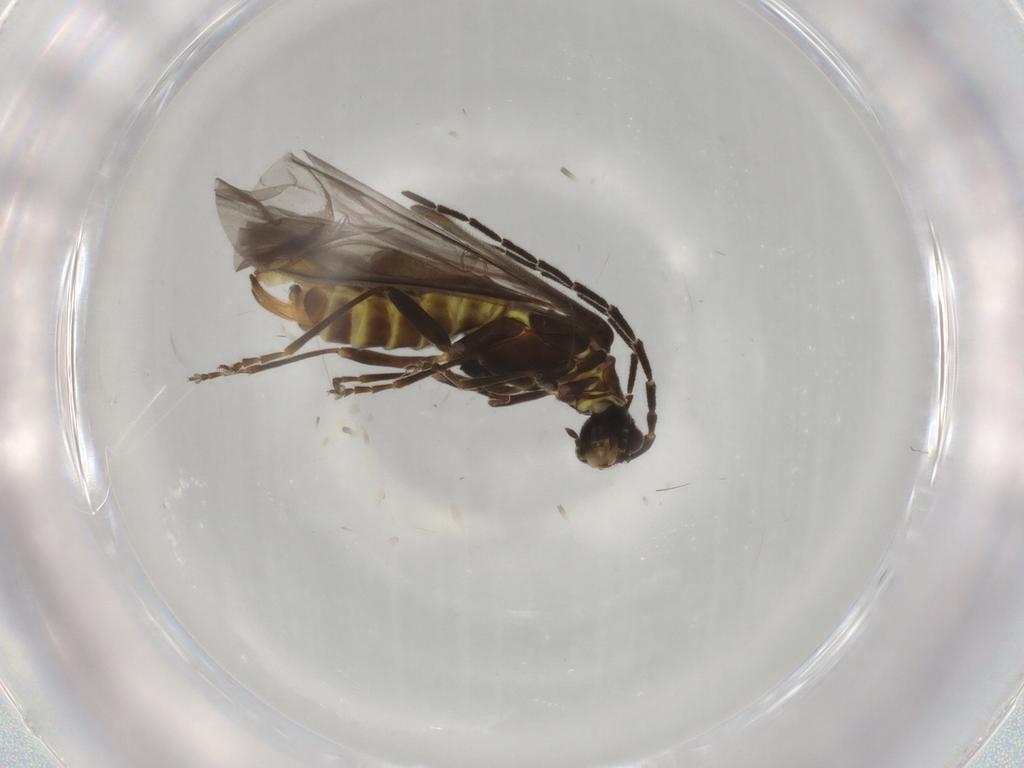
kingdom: Animalia
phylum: Arthropoda
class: Insecta
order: Coleoptera
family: Cantharidae
